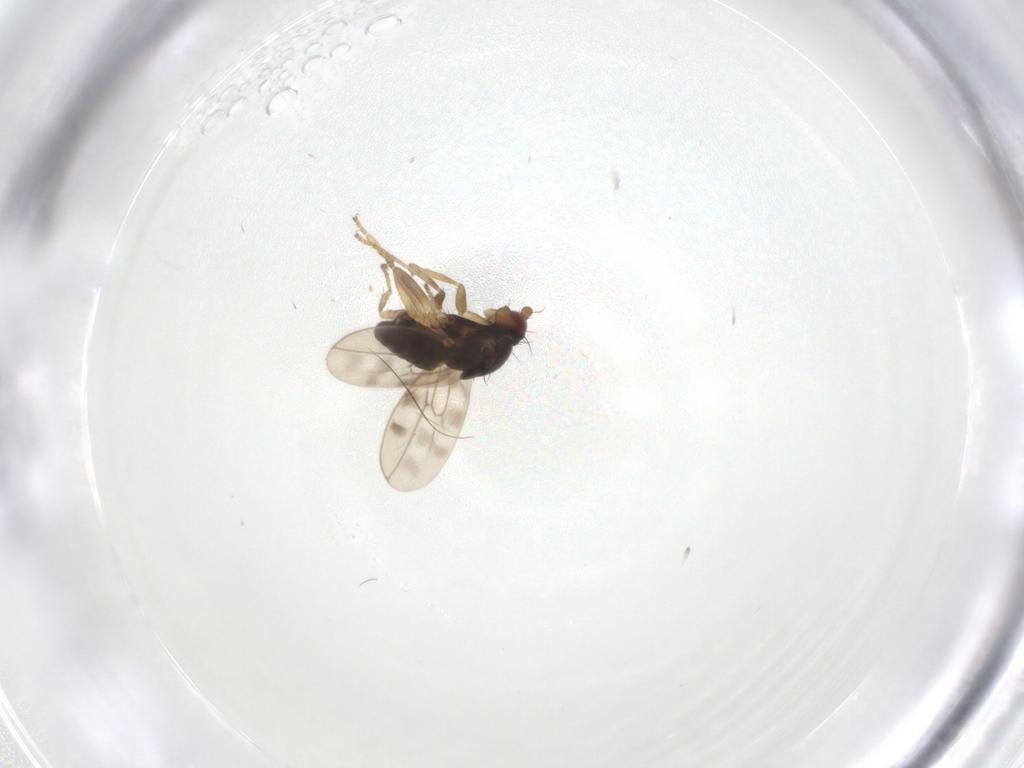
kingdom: Animalia
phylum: Arthropoda
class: Insecta
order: Diptera
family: Sphaeroceridae
